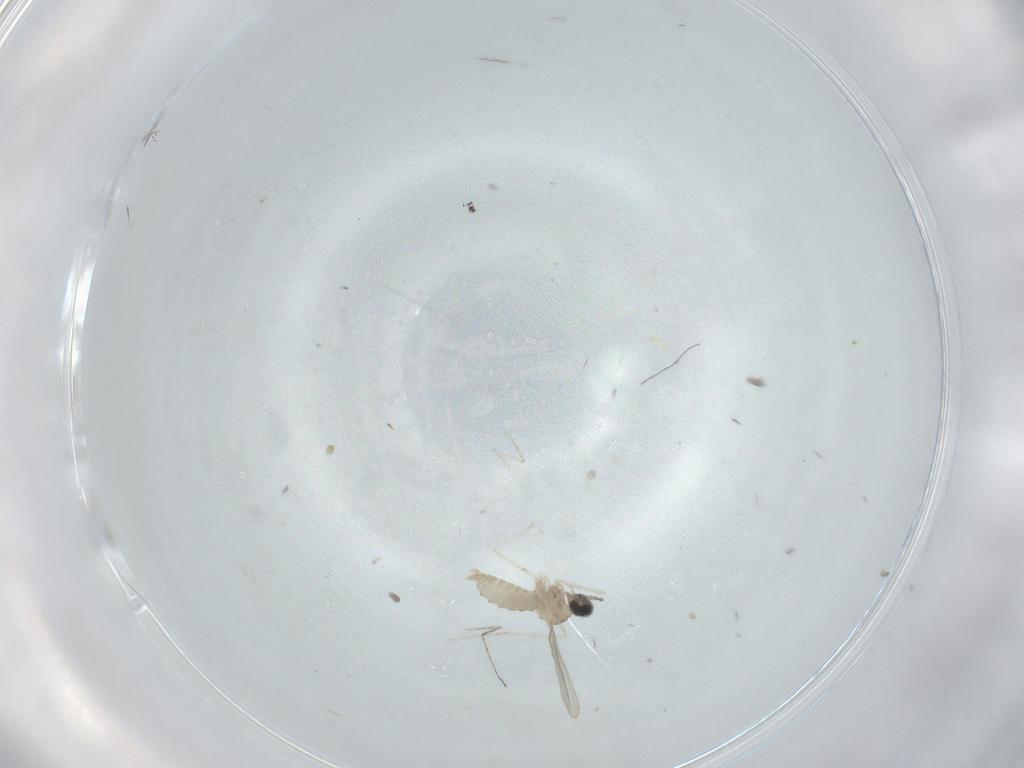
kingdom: Animalia
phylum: Arthropoda
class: Insecta
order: Diptera
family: Cecidomyiidae
